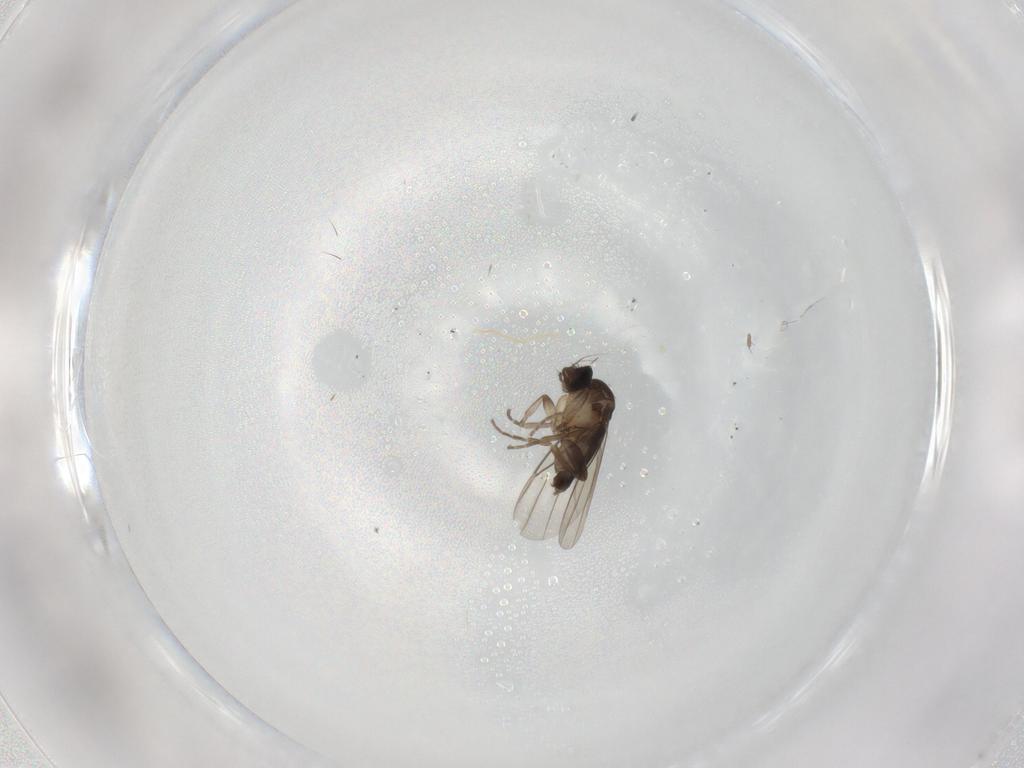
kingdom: Animalia
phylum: Arthropoda
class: Insecta
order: Diptera
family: Phoridae
